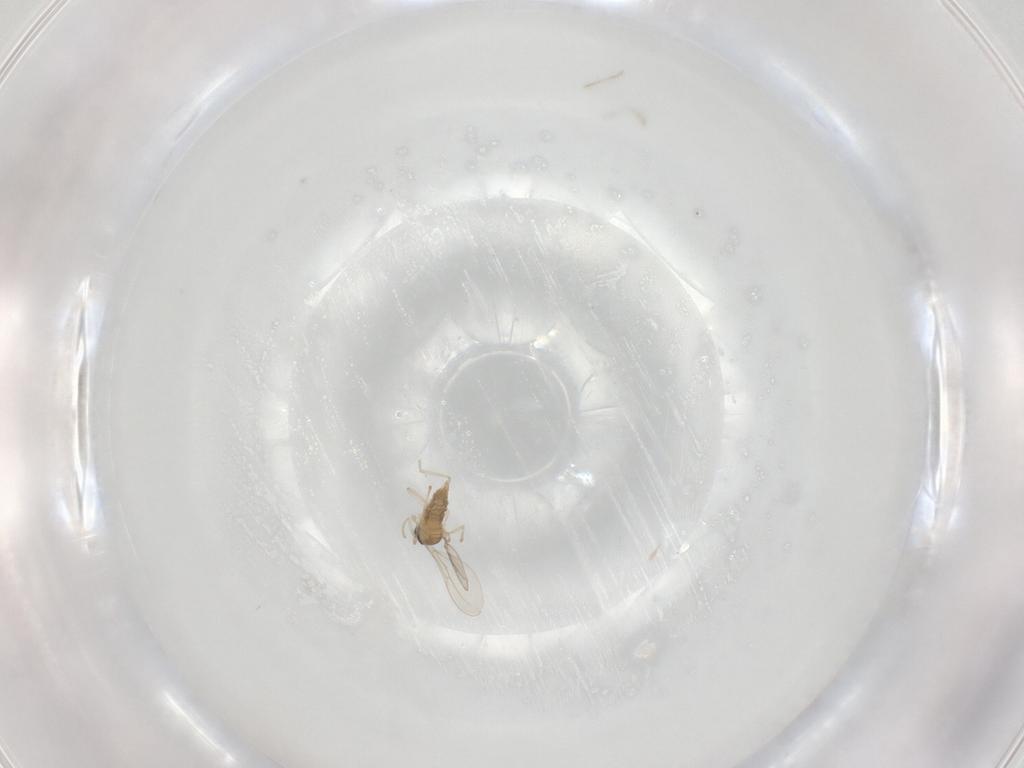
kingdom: Animalia
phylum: Arthropoda
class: Insecta
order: Diptera
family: Cecidomyiidae
